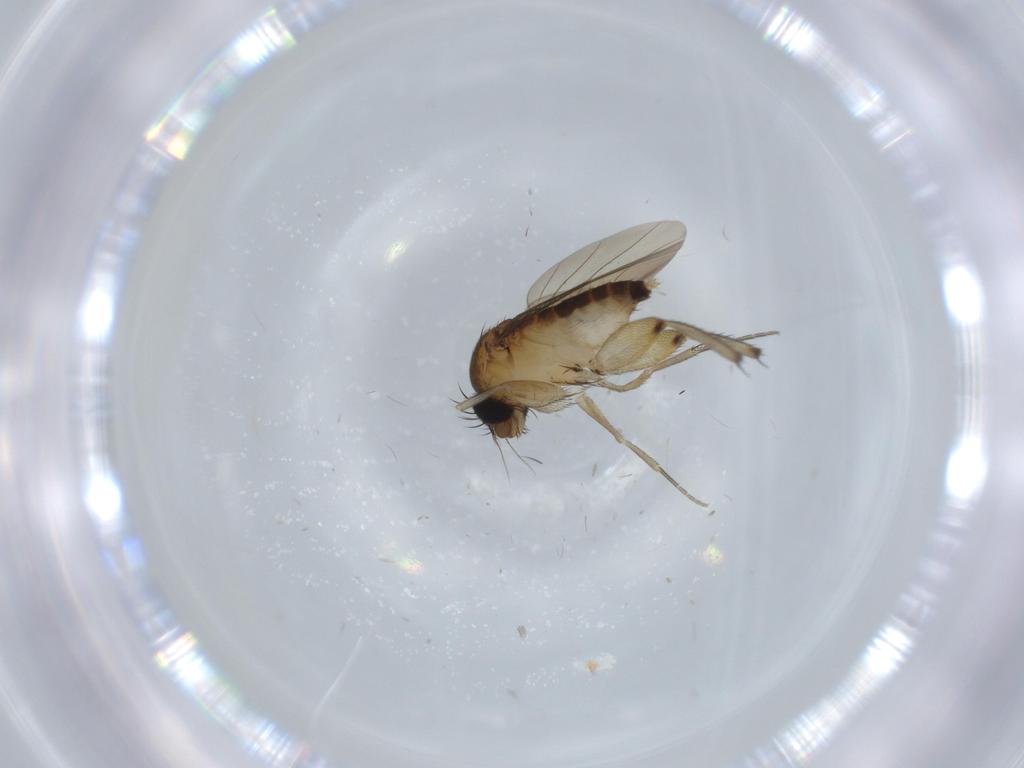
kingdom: Animalia
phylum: Arthropoda
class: Insecta
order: Diptera
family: Phoridae
